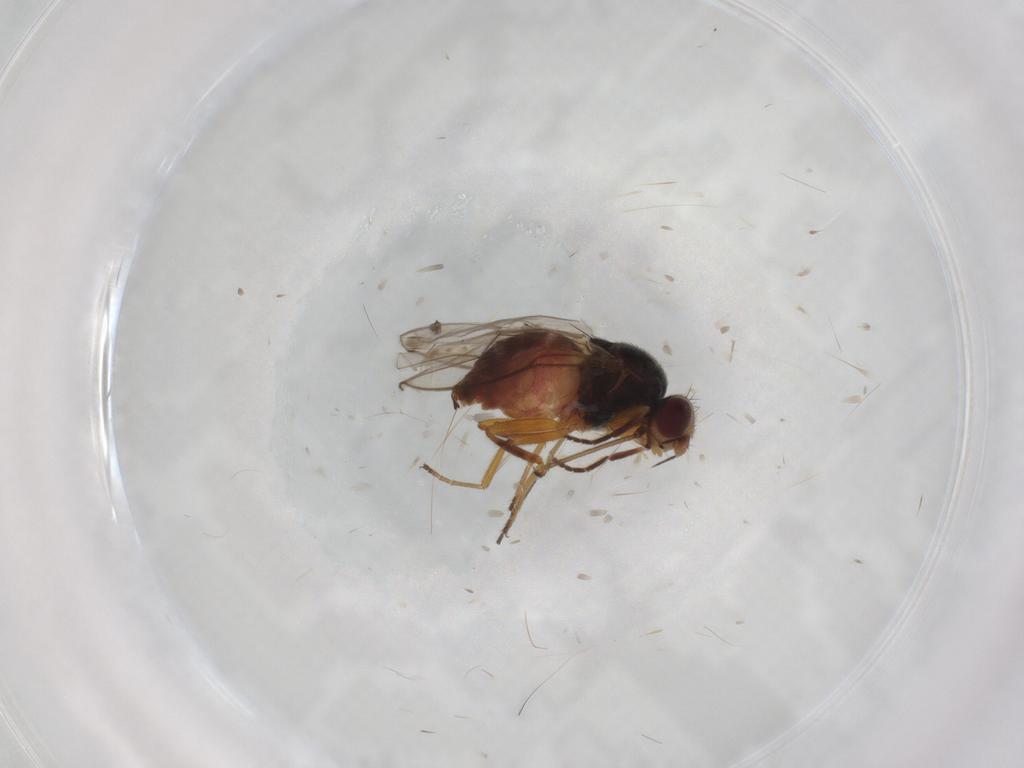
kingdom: Animalia
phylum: Arthropoda
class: Insecta
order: Diptera
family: Chloropidae
